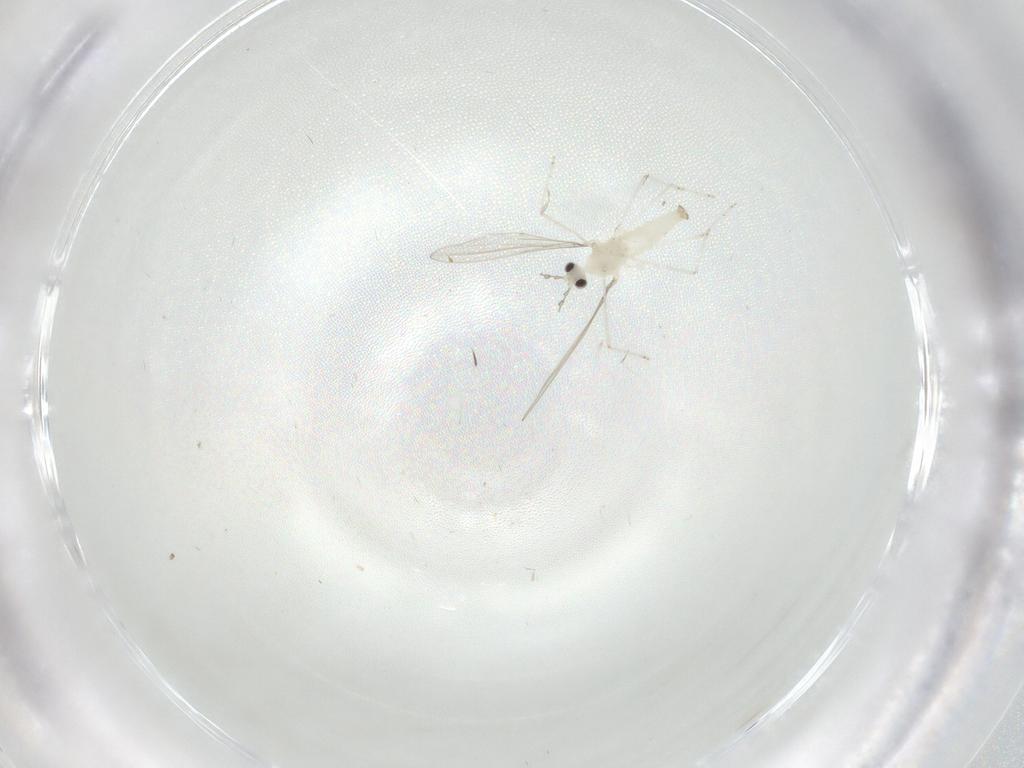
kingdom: Animalia
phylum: Arthropoda
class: Insecta
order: Diptera
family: Cecidomyiidae
